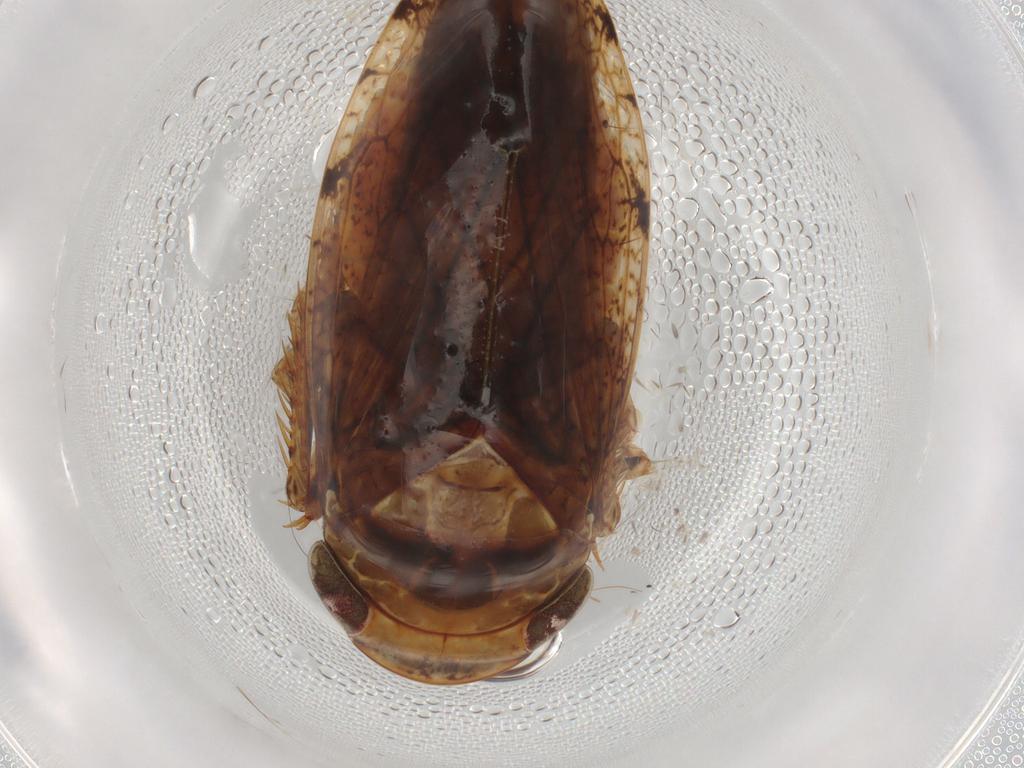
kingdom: Animalia
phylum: Arthropoda
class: Insecta
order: Hemiptera
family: Cicadellidae
